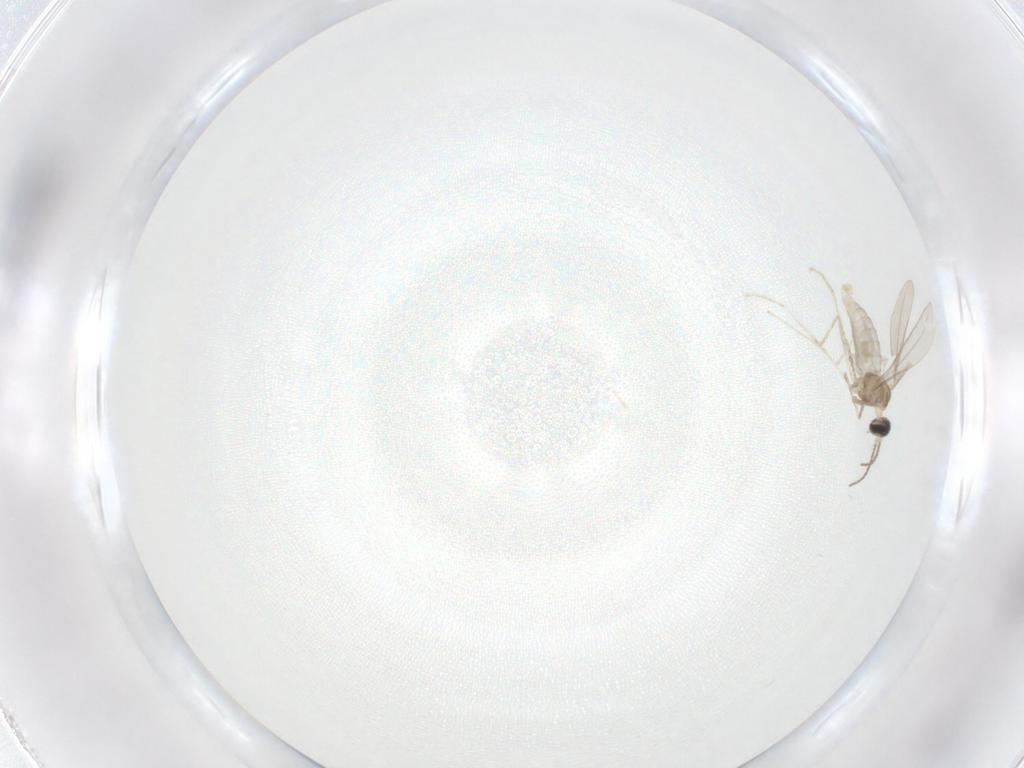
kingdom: Animalia
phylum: Arthropoda
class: Insecta
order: Diptera
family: Cecidomyiidae
